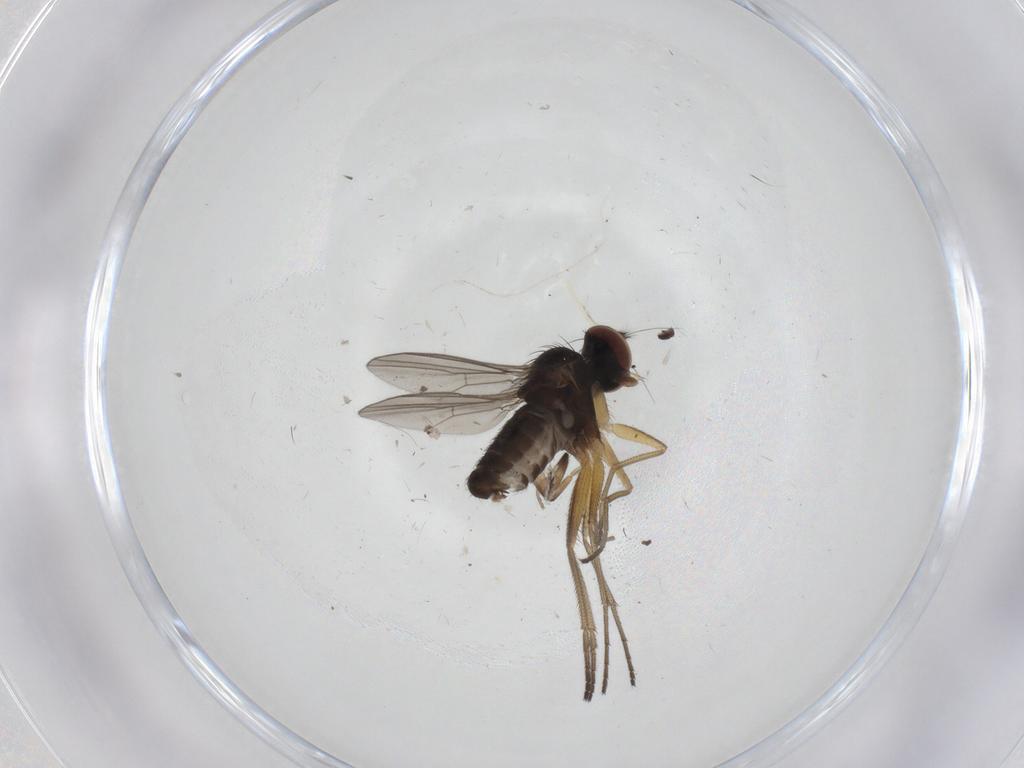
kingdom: Animalia
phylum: Arthropoda
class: Insecta
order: Diptera
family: Dolichopodidae
